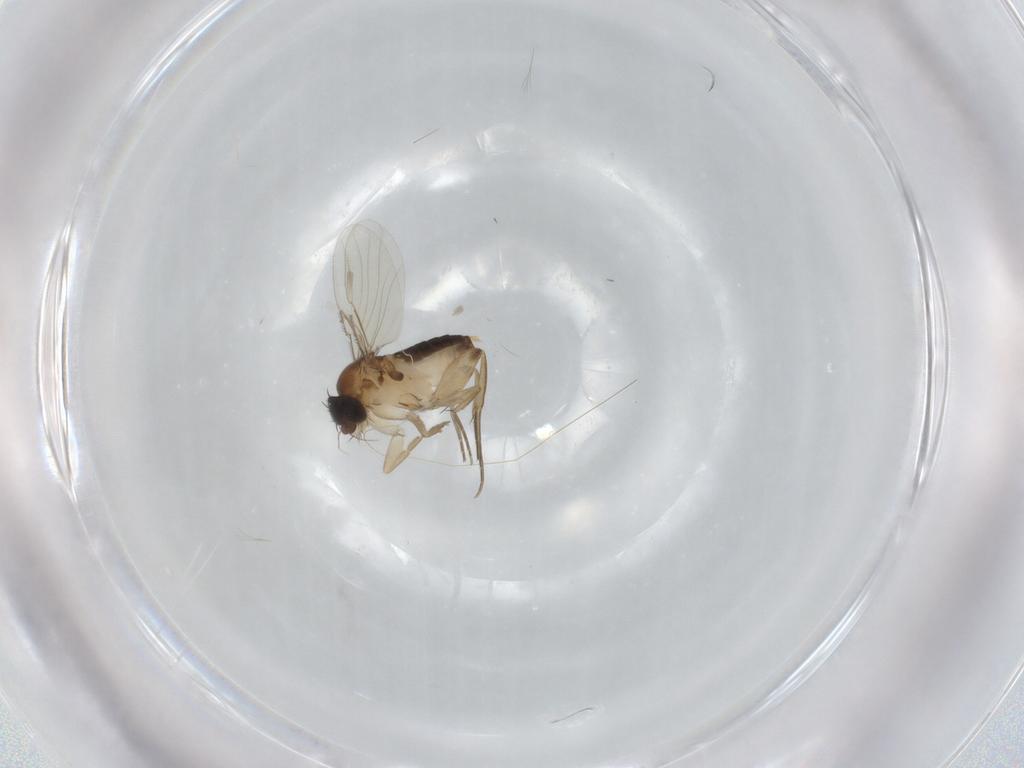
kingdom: Animalia
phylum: Arthropoda
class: Insecta
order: Diptera
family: Phoridae
